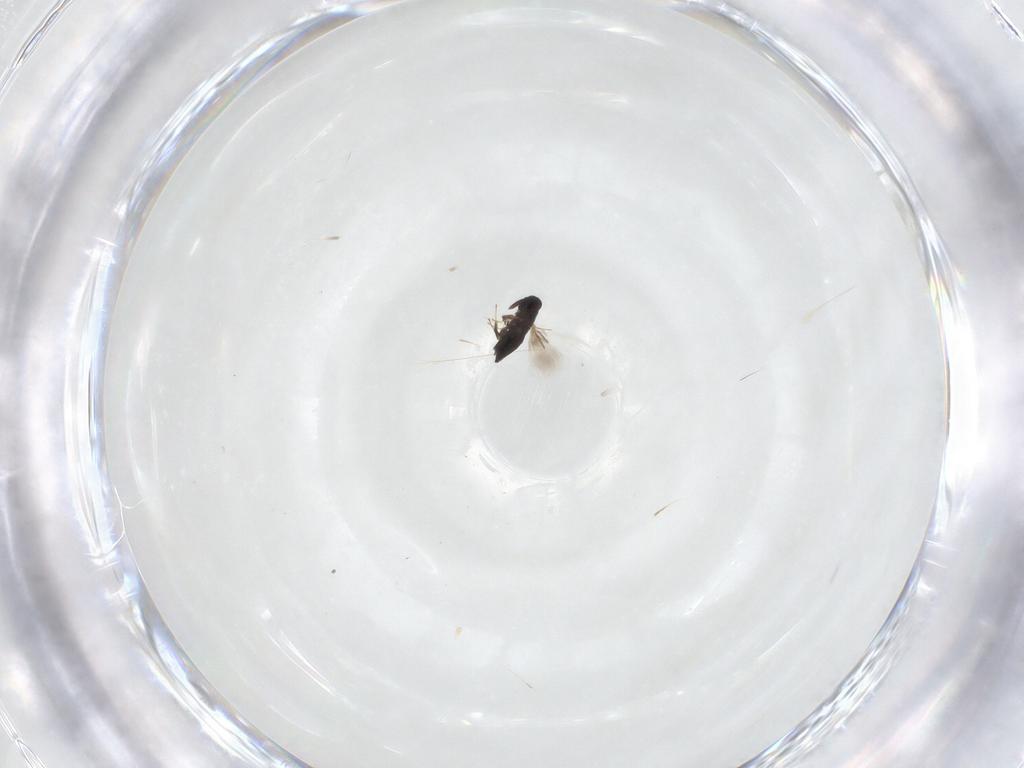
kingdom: Animalia
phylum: Arthropoda
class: Insecta
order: Hymenoptera
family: Signiphoridae
